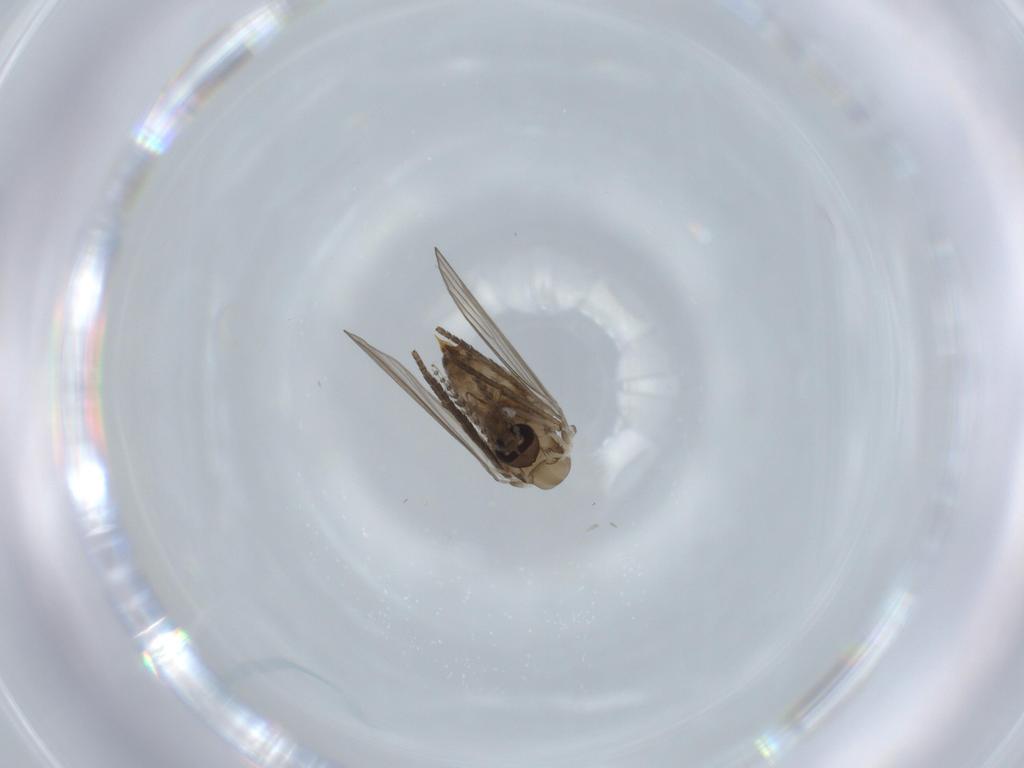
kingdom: Animalia
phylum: Arthropoda
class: Insecta
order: Diptera
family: Psychodidae
